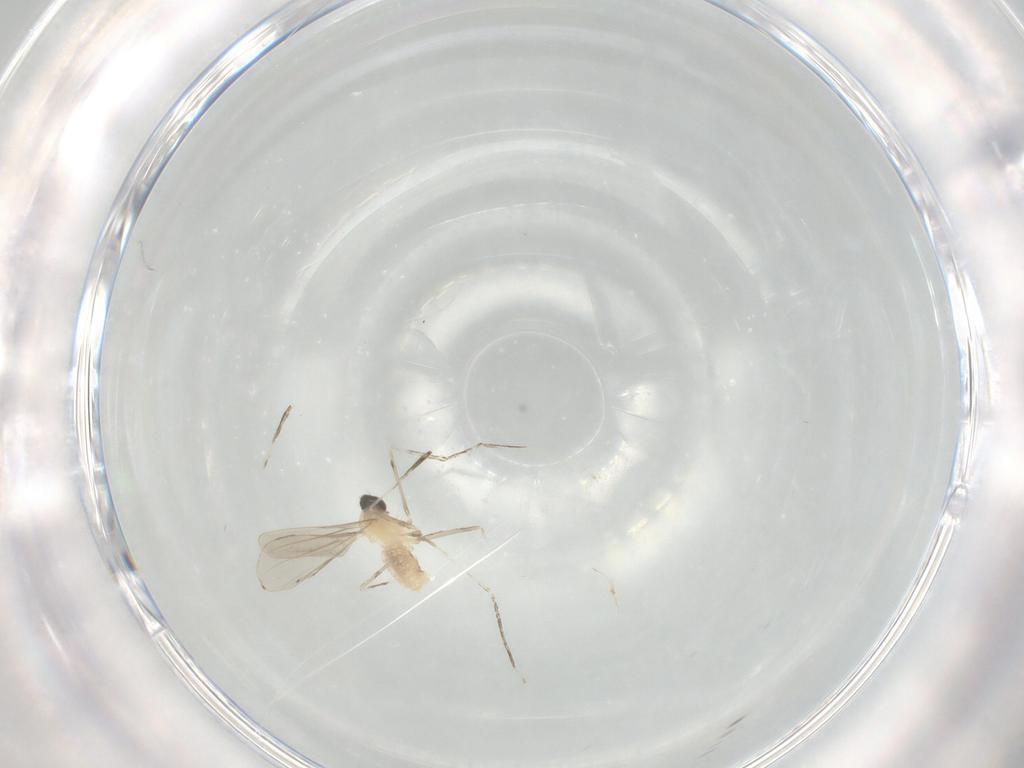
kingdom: Animalia
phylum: Arthropoda
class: Insecta
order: Diptera
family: Cecidomyiidae
